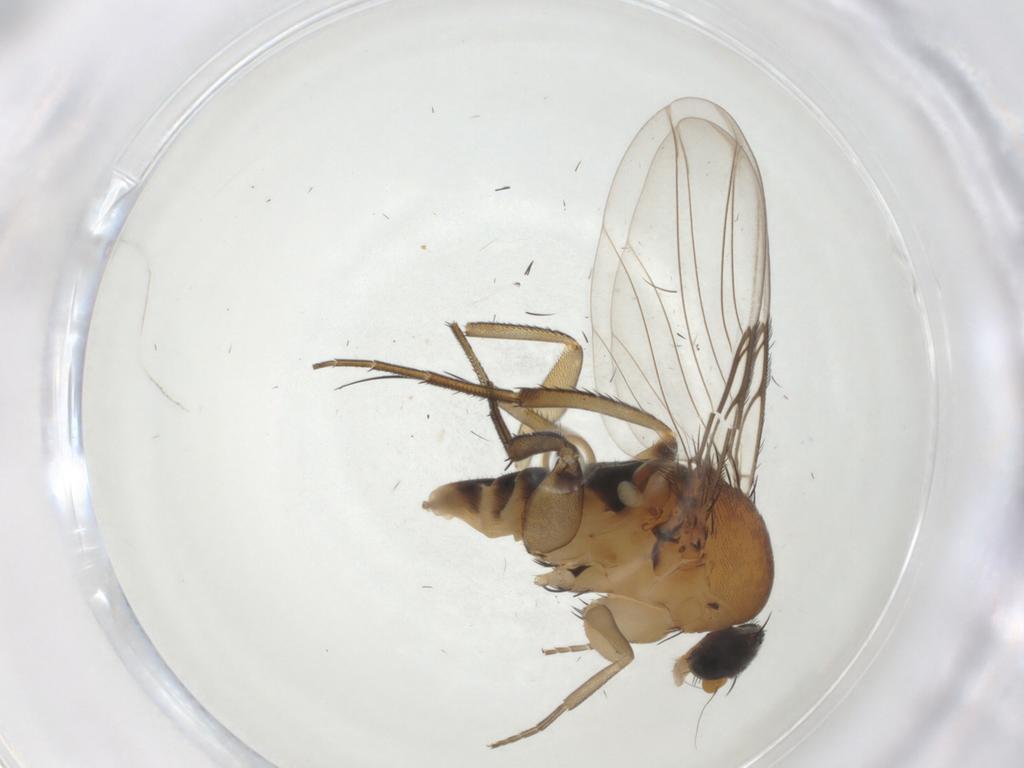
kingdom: Animalia
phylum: Arthropoda
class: Insecta
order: Diptera
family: Phoridae
